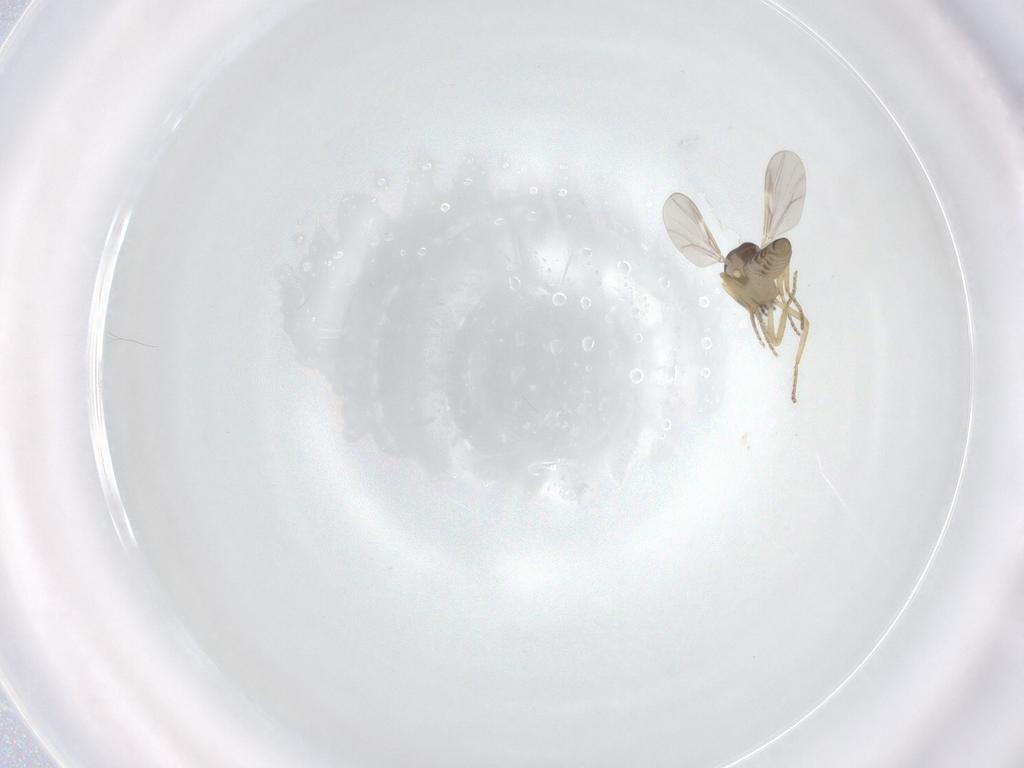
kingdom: Animalia
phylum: Arthropoda
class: Insecta
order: Diptera
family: Ceratopogonidae
